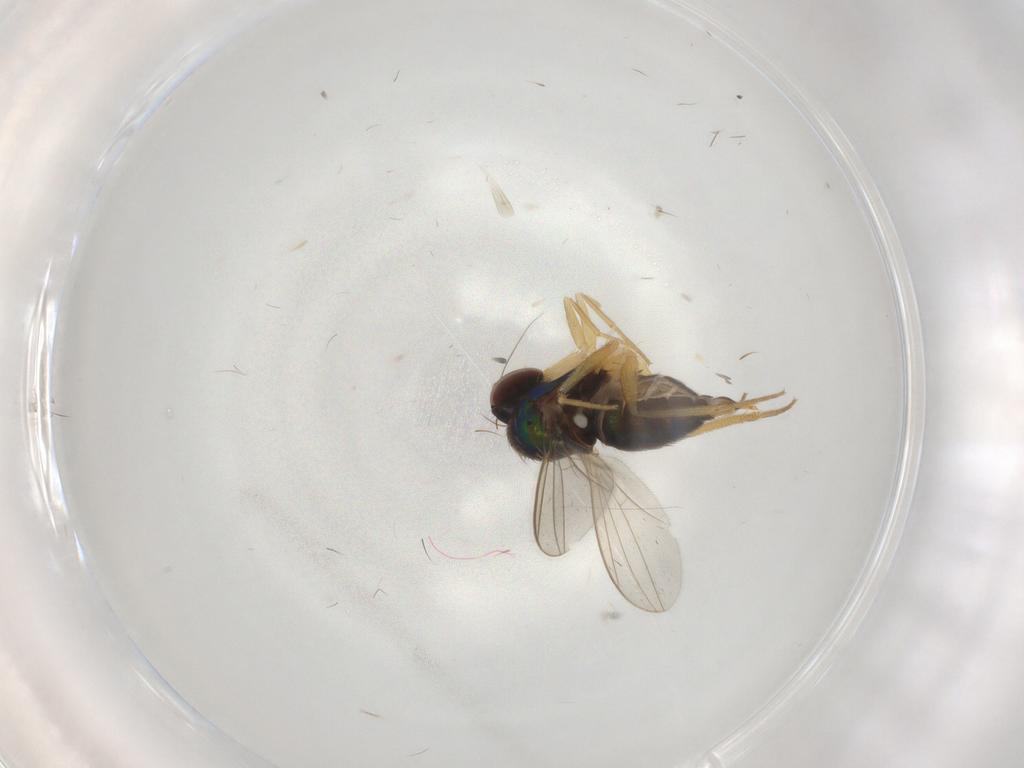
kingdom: Animalia
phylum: Arthropoda
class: Insecta
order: Diptera
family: Dolichopodidae
